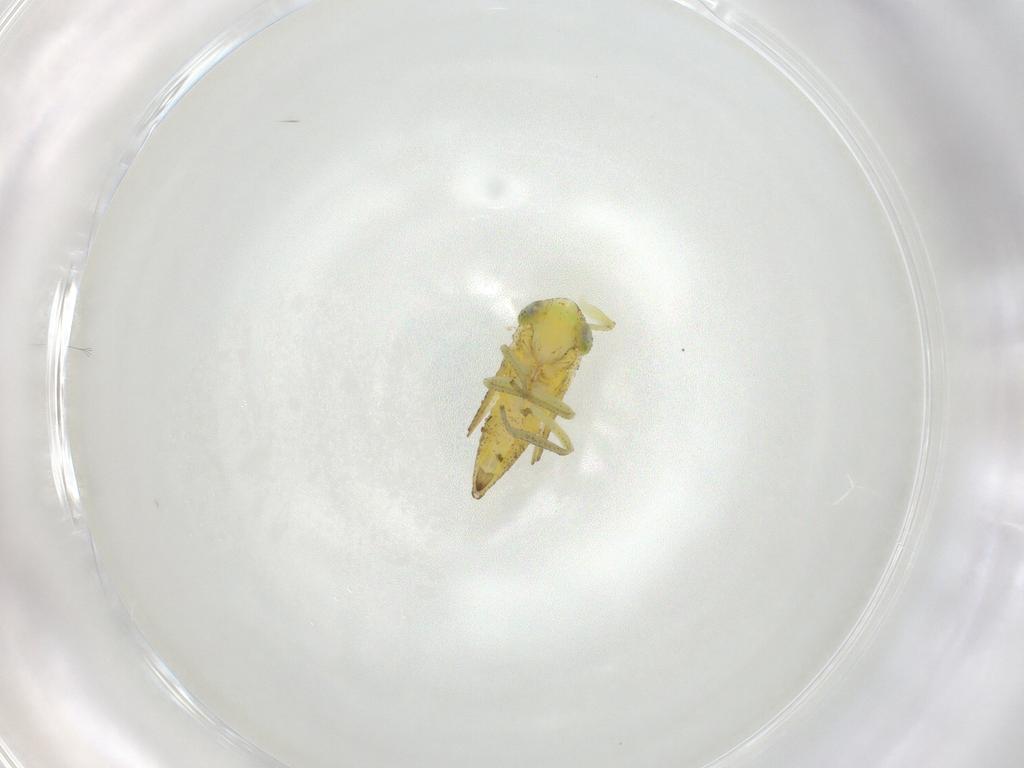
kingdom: Animalia
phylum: Arthropoda
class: Insecta
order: Hemiptera
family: Cicadellidae
